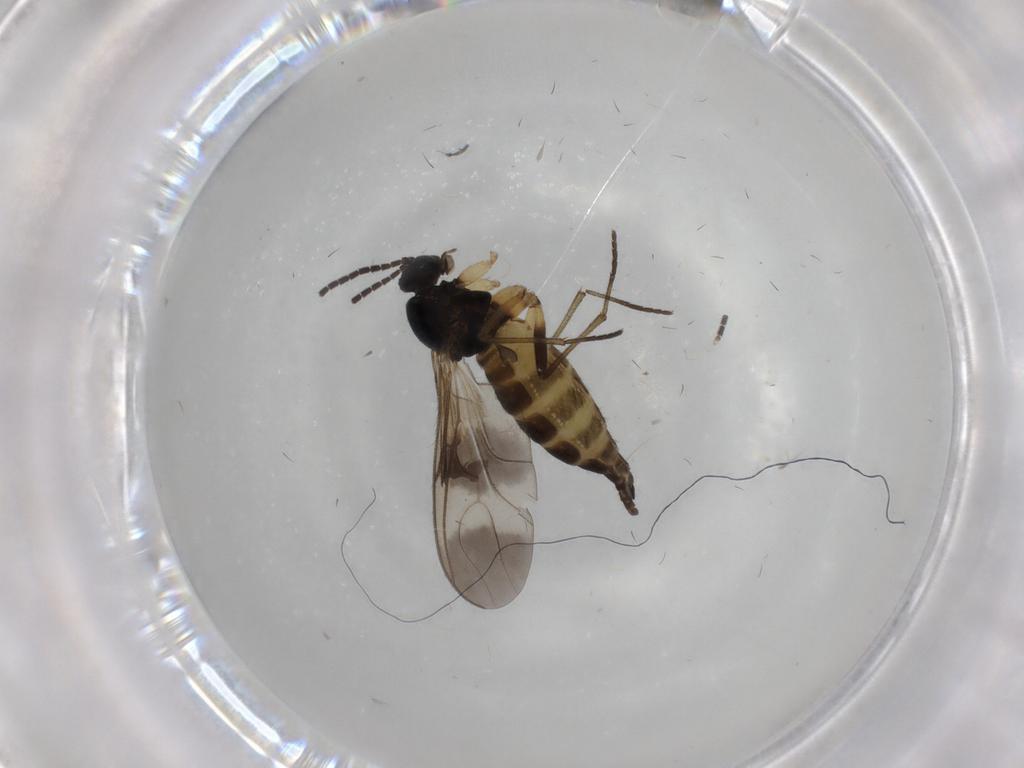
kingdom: Animalia
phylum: Arthropoda
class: Insecta
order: Diptera
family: Sciaridae
